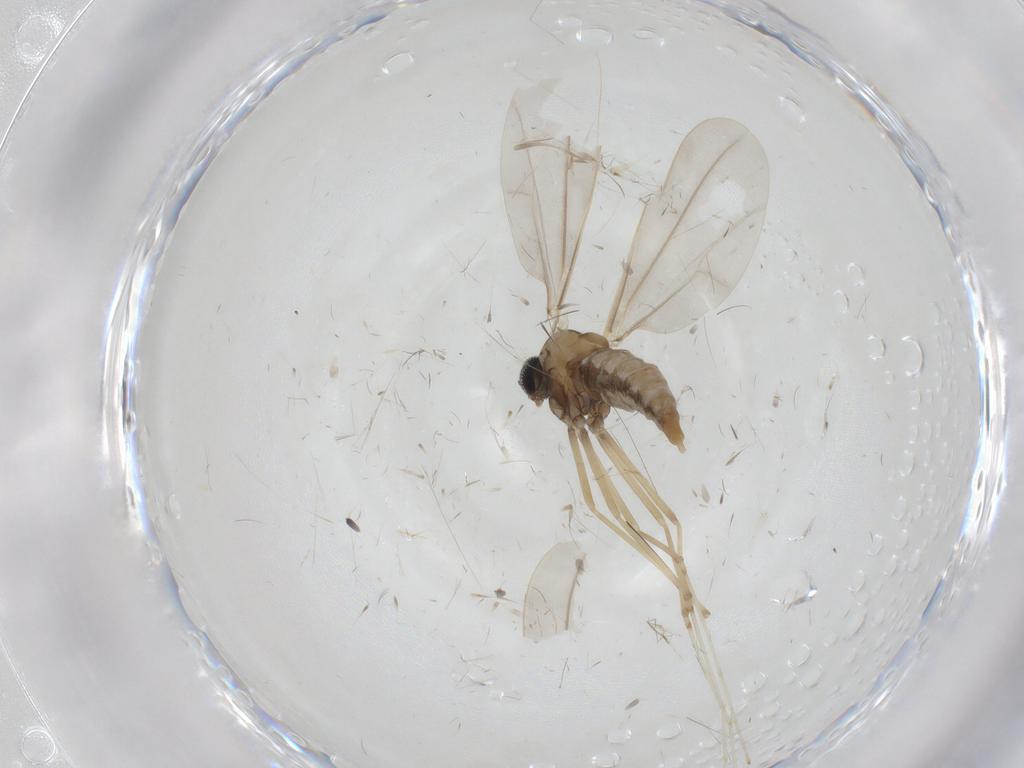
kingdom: Animalia
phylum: Arthropoda
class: Insecta
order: Diptera
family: Cecidomyiidae
